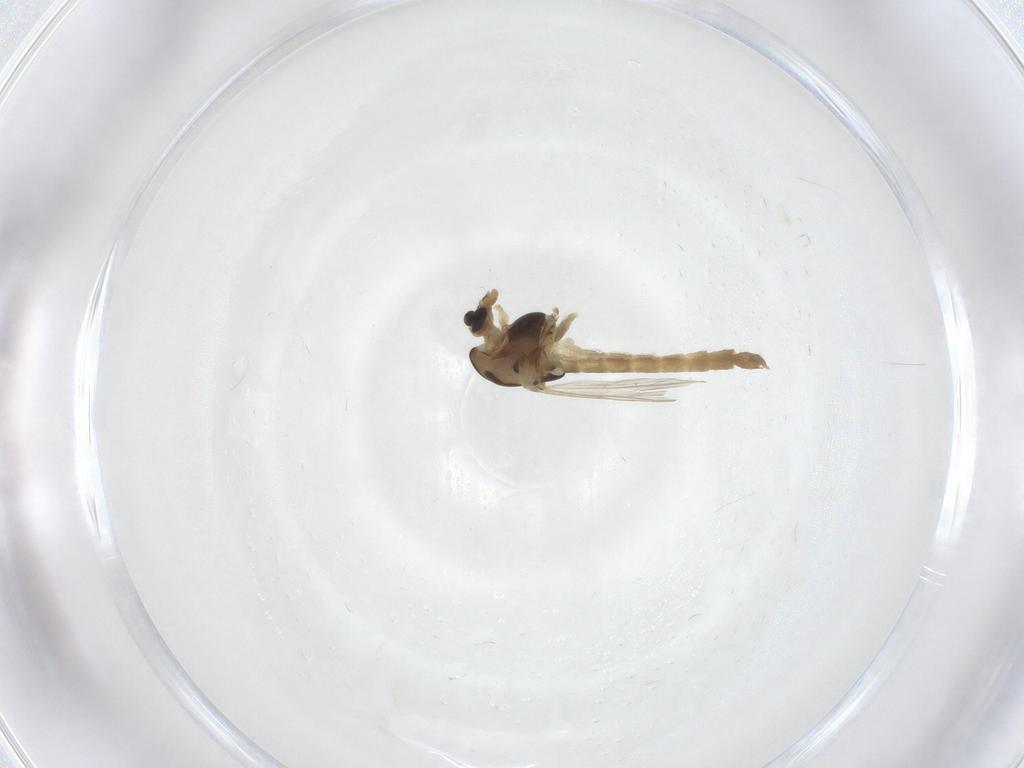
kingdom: Animalia
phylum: Arthropoda
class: Insecta
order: Diptera
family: Chironomidae
